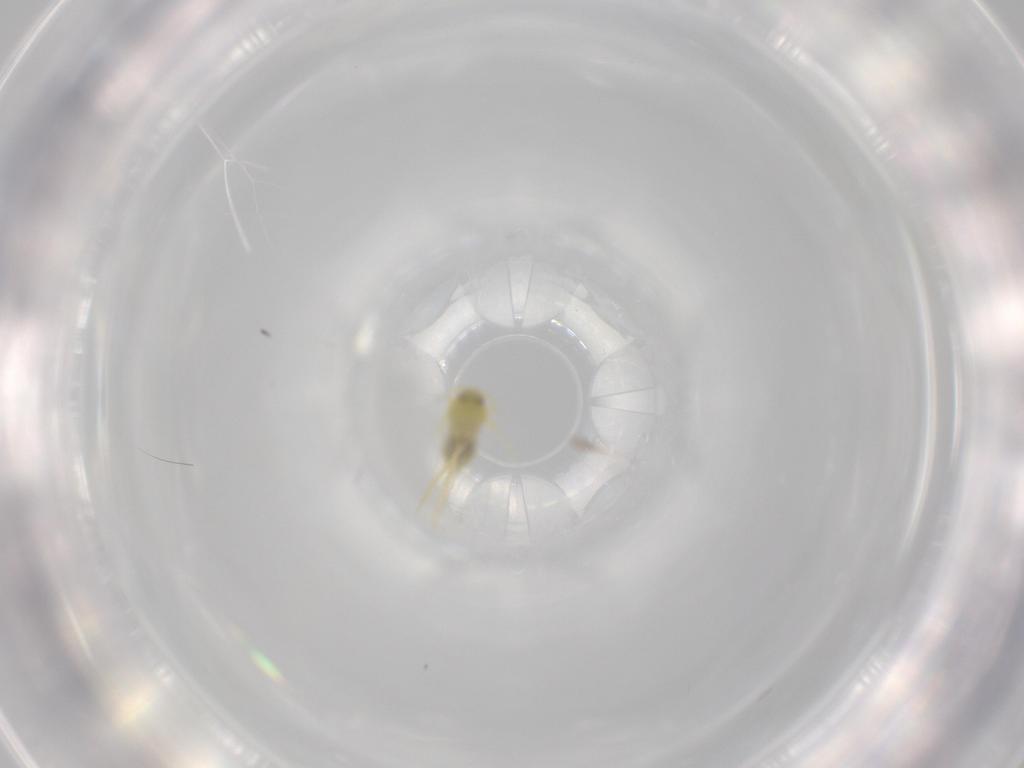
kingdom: Animalia
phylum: Arthropoda
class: Insecta
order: Hemiptera
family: Aleyrodidae
